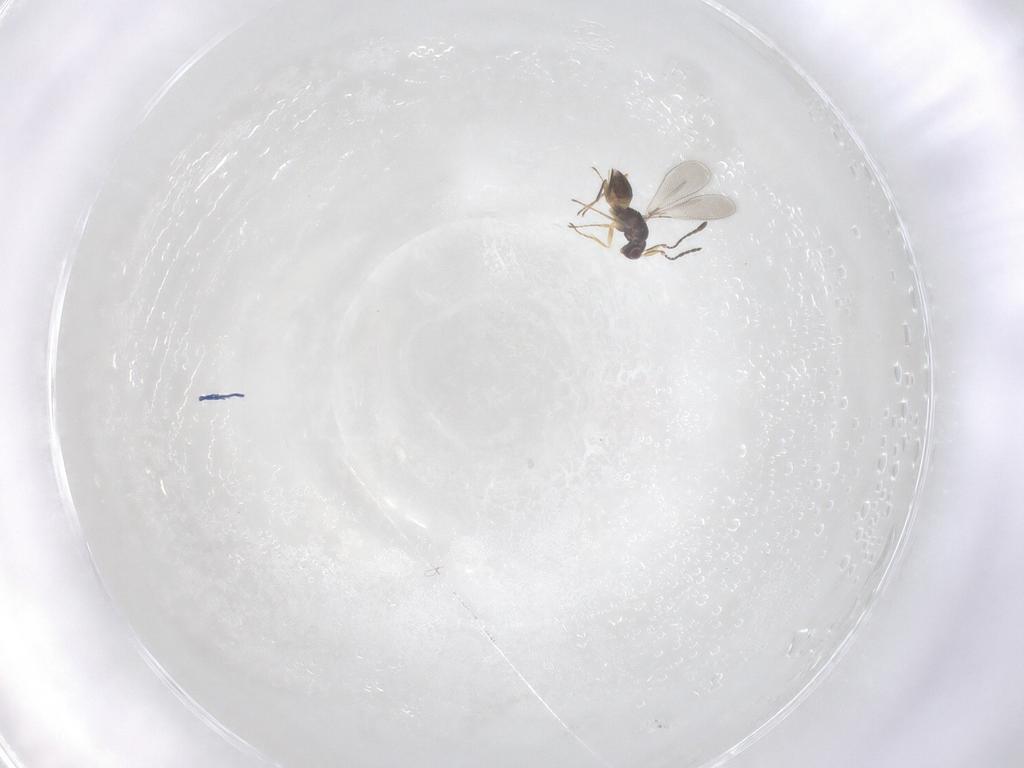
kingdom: Animalia
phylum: Arthropoda
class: Insecta
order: Hymenoptera
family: Mymaridae
